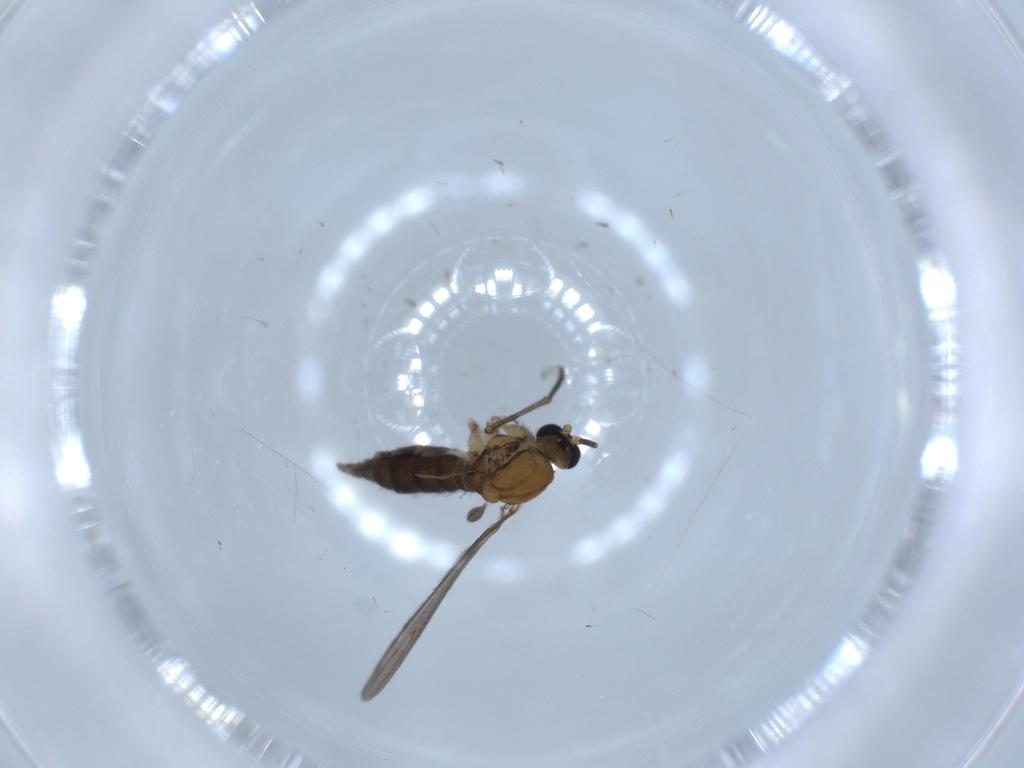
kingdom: Animalia
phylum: Arthropoda
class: Insecta
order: Diptera
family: Sciaridae
